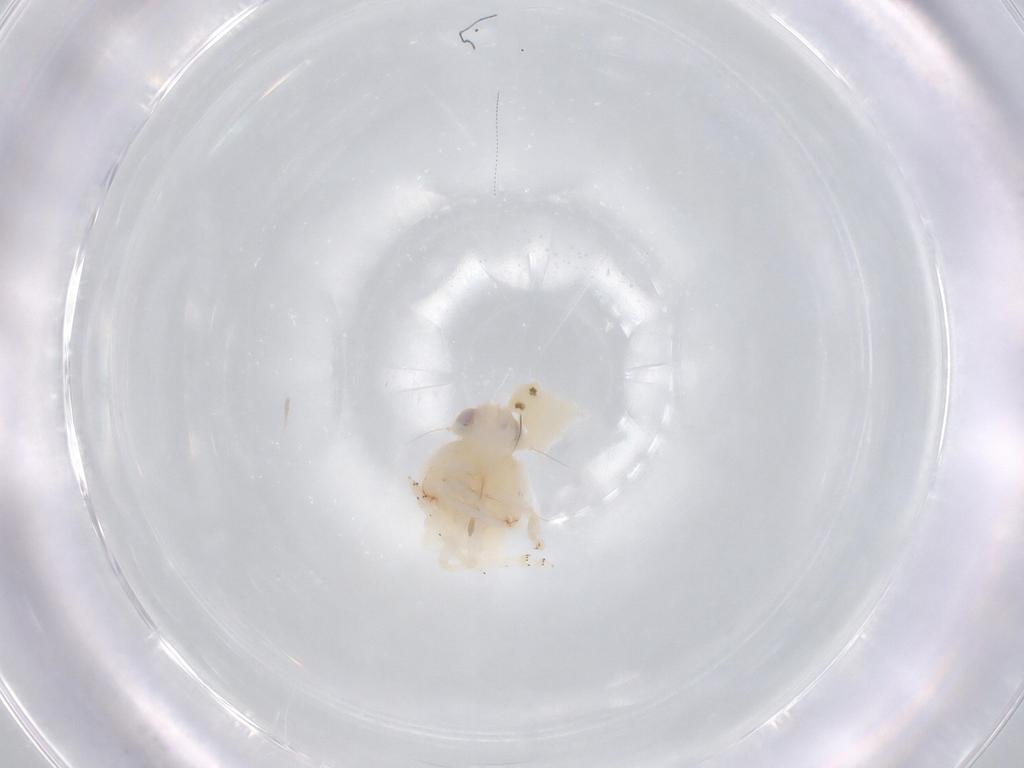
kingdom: Animalia
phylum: Arthropoda
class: Insecta
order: Hemiptera
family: Nogodinidae
